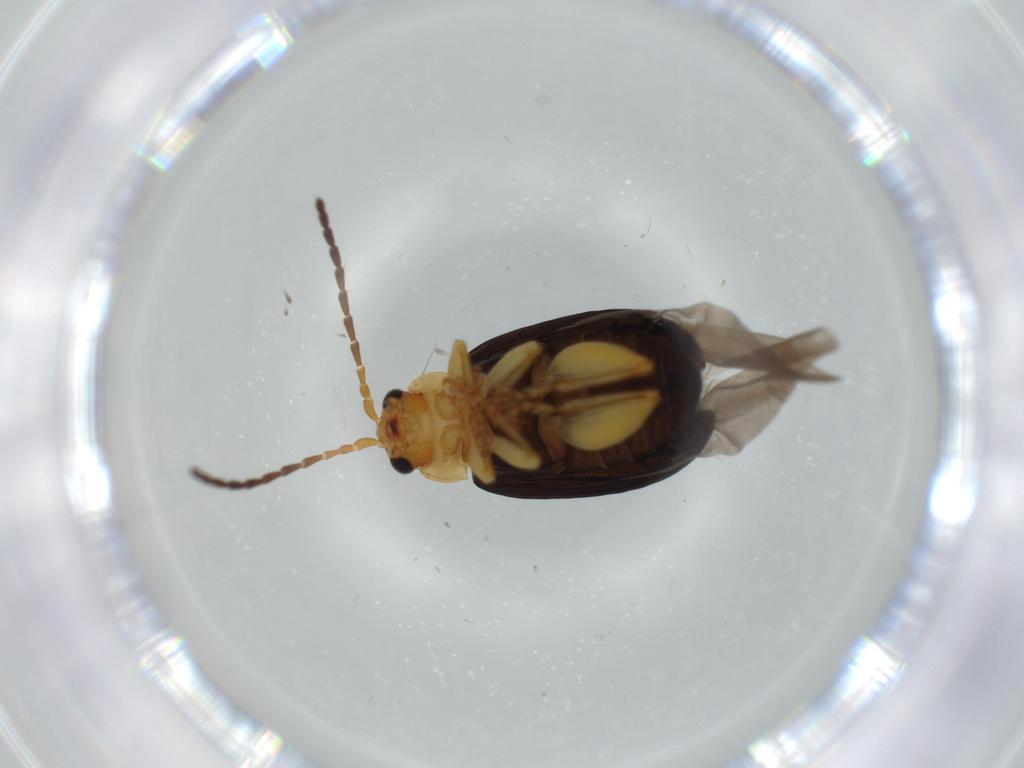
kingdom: Animalia
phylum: Arthropoda
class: Insecta
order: Coleoptera
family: Chrysomelidae
